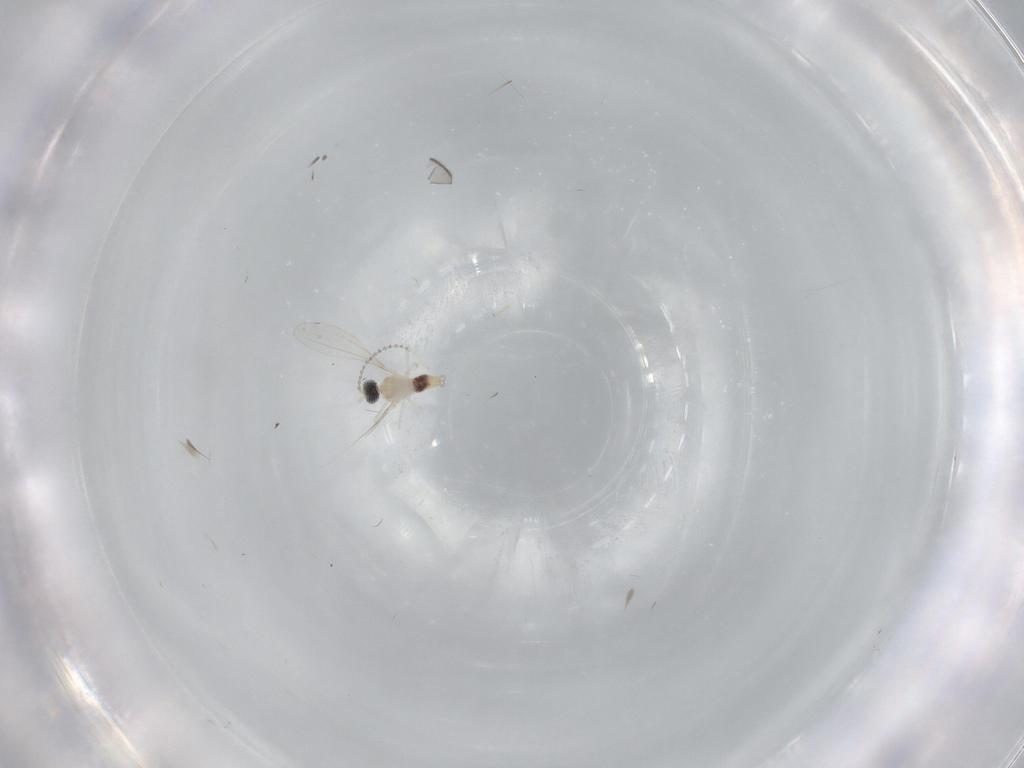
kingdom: Animalia
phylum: Arthropoda
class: Insecta
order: Diptera
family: Cecidomyiidae
